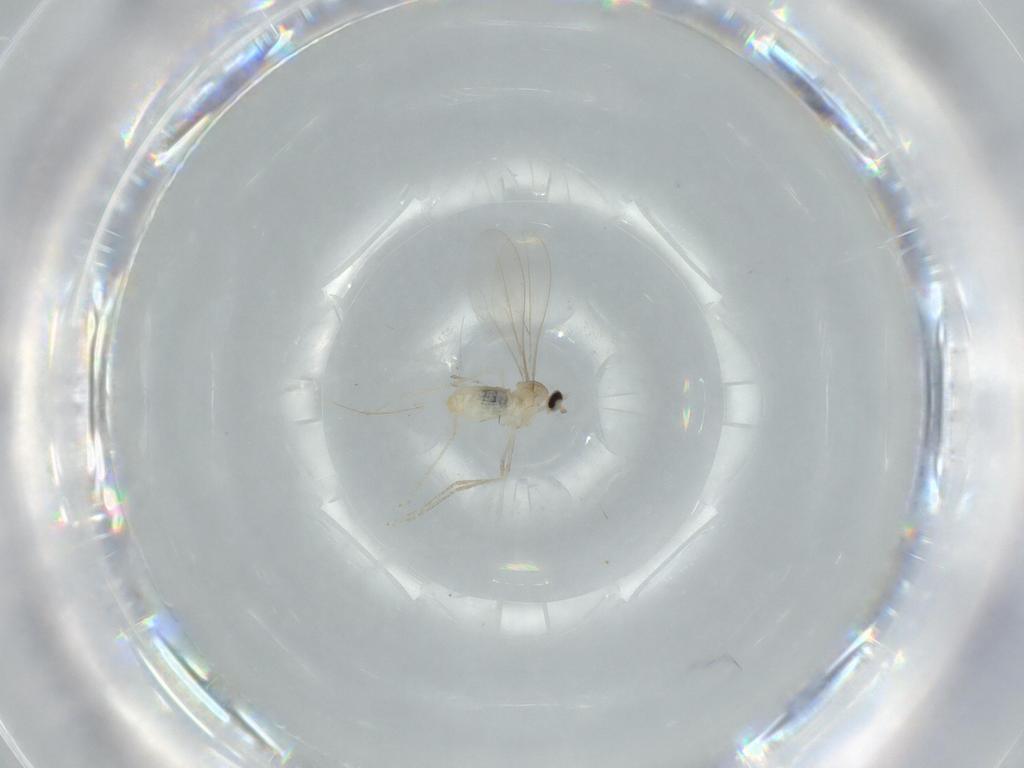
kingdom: Animalia
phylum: Arthropoda
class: Insecta
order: Diptera
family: Cecidomyiidae
